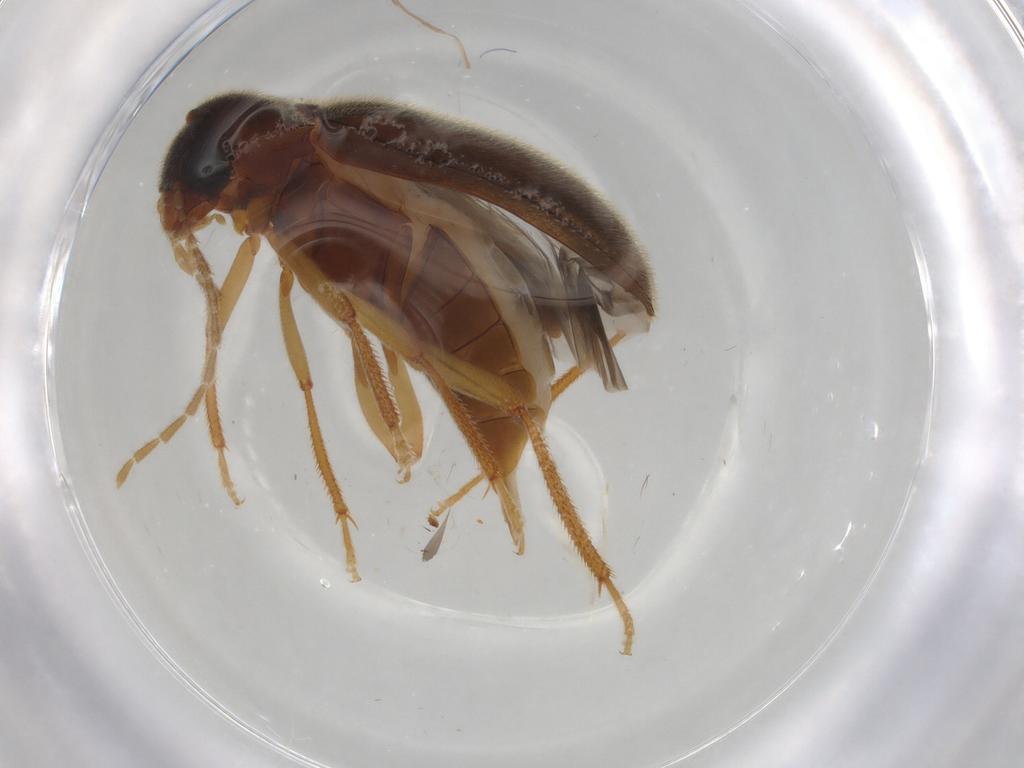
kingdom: Animalia
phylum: Arthropoda
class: Insecta
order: Coleoptera
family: Ptilodactylidae
